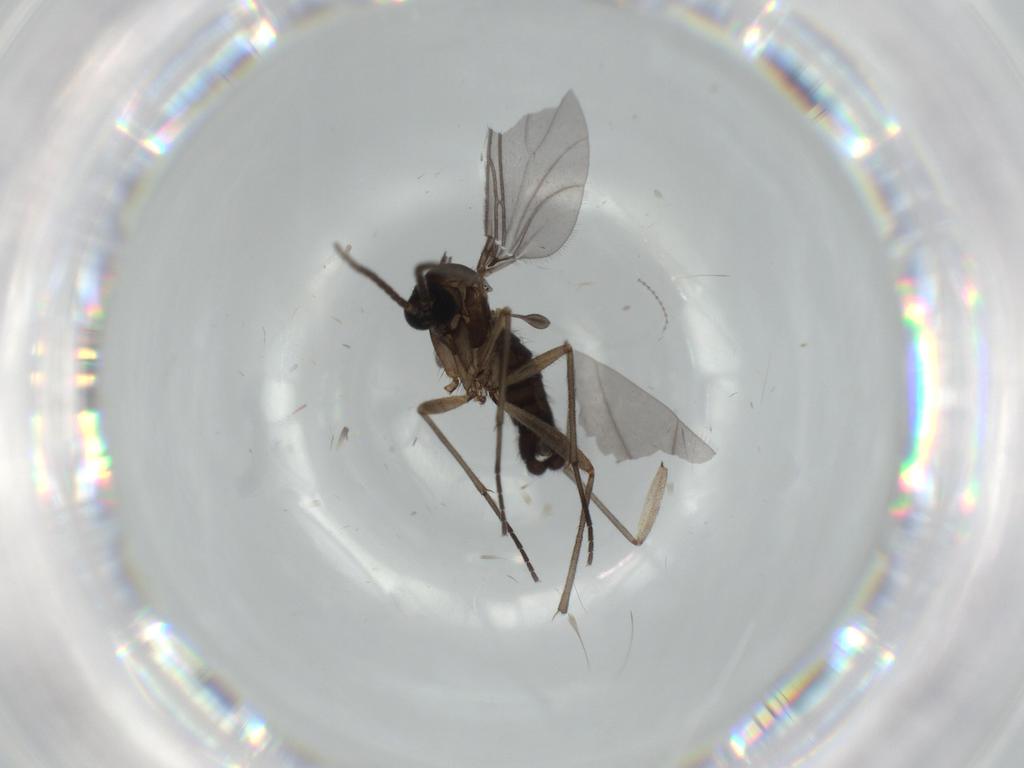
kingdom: Animalia
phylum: Arthropoda
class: Insecta
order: Diptera
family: Sciaridae
